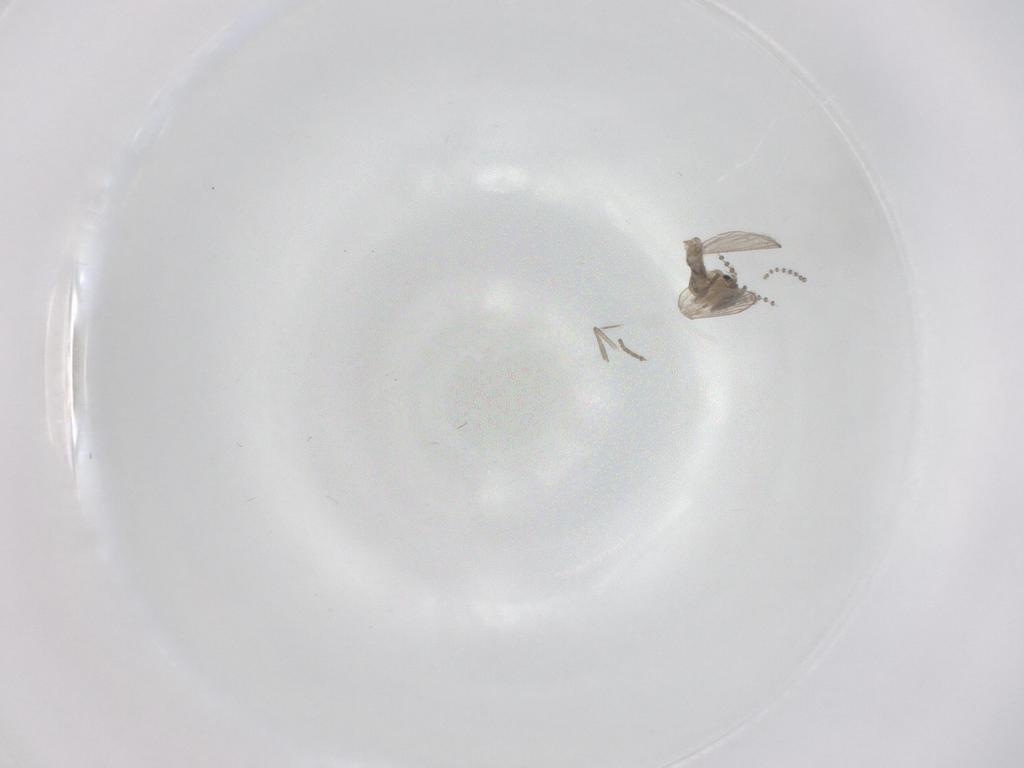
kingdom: Animalia
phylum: Arthropoda
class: Insecta
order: Diptera
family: Psychodidae
